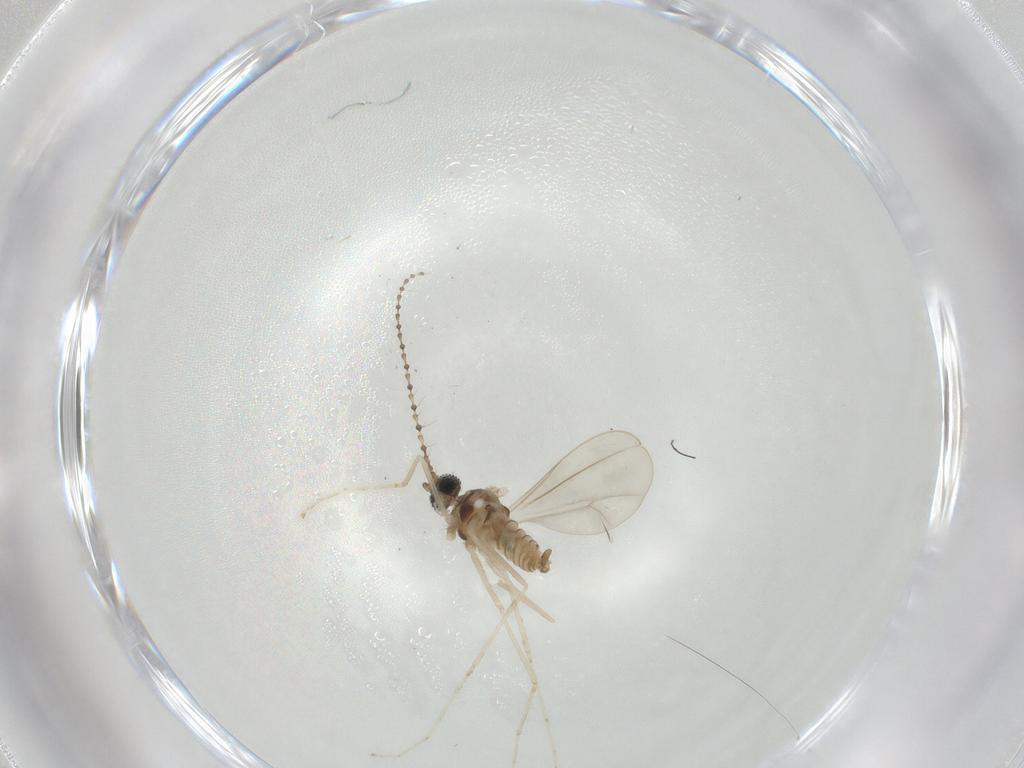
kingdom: Animalia
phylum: Arthropoda
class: Insecta
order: Diptera
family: Cecidomyiidae
